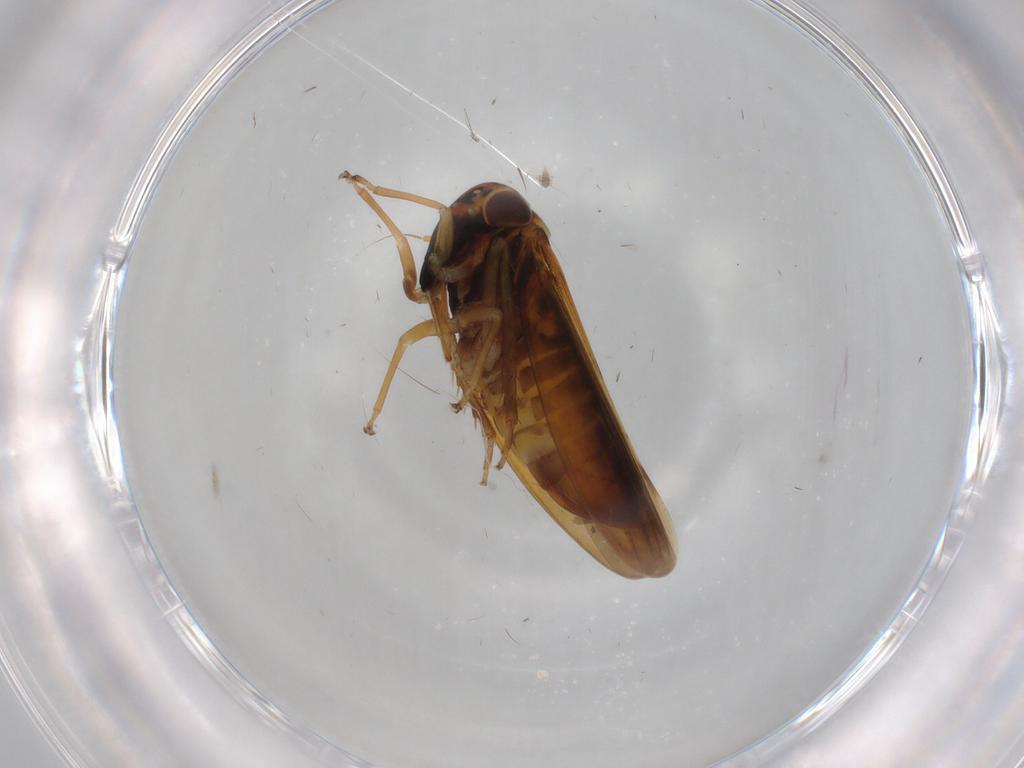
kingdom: Animalia
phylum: Arthropoda
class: Insecta
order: Hemiptera
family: Cicadellidae
